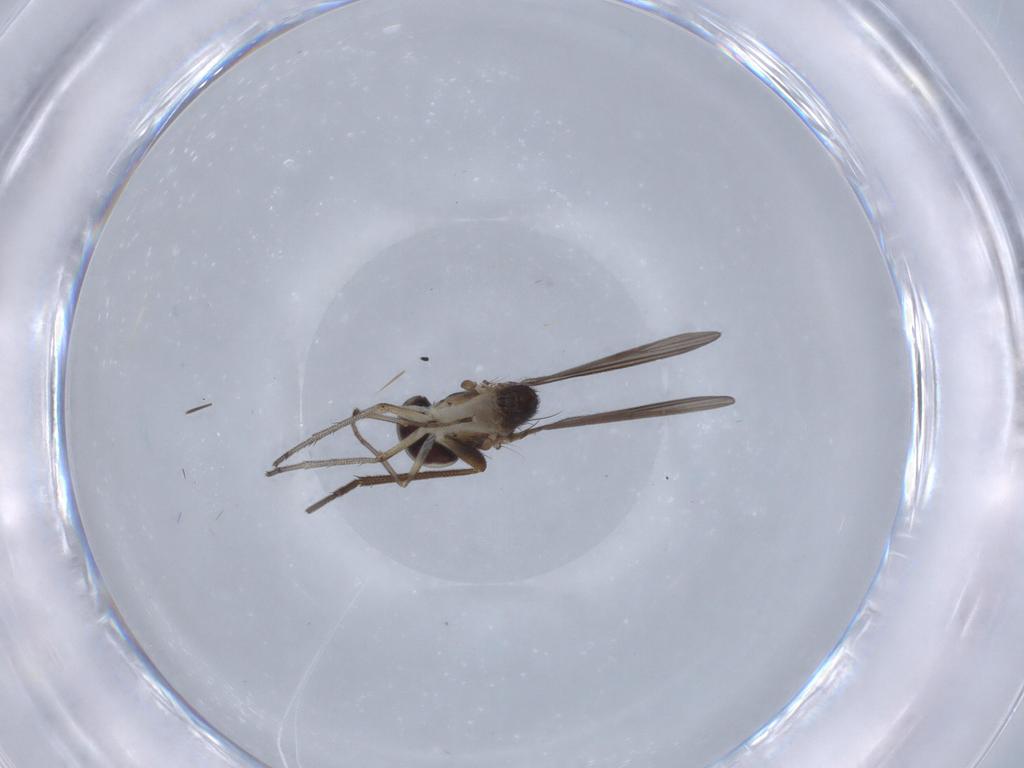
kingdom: Animalia
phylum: Arthropoda
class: Insecta
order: Diptera
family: Dolichopodidae
